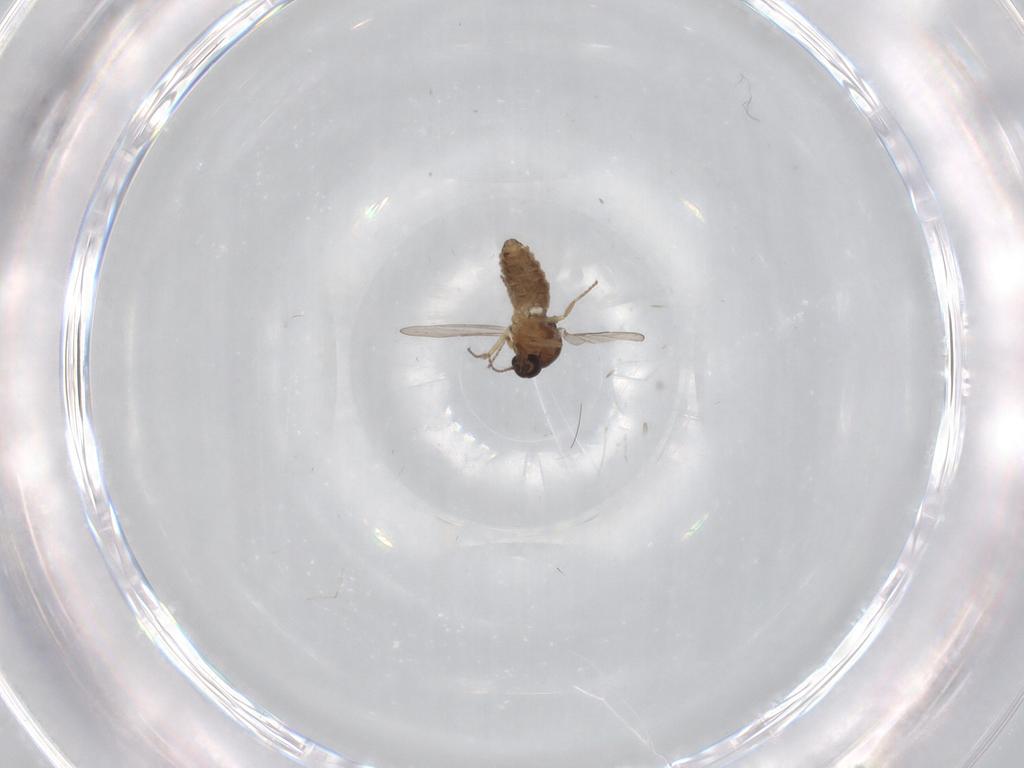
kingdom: Animalia
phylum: Arthropoda
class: Insecta
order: Diptera
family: Ceratopogonidae
